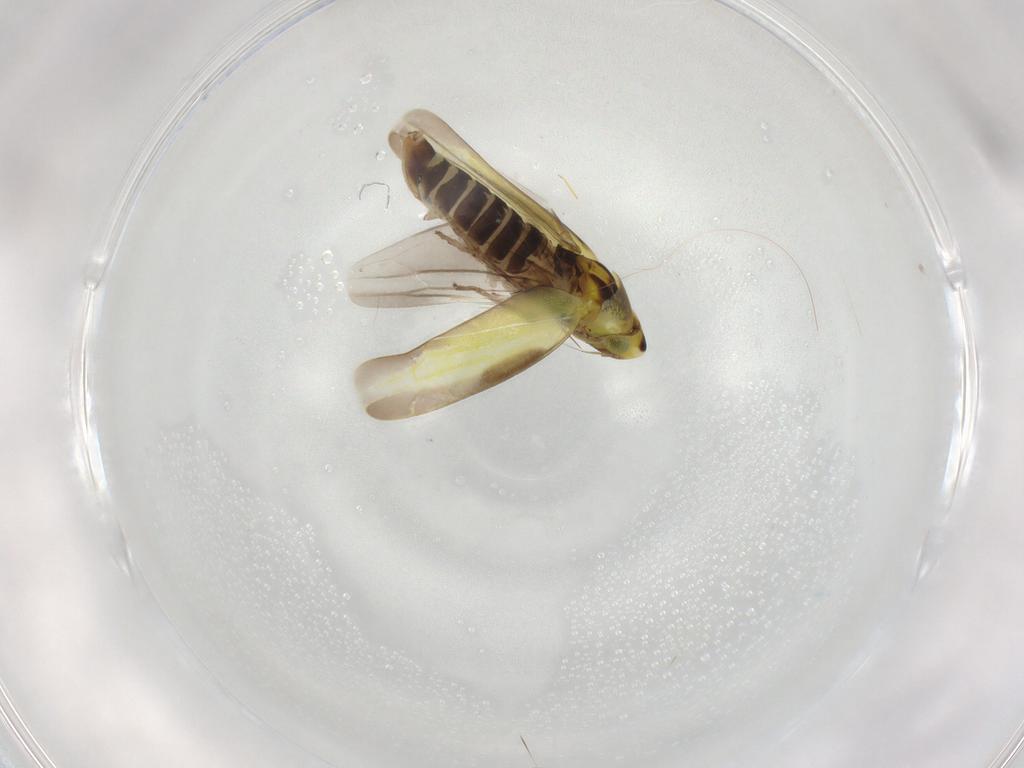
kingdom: Animalia
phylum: Arthropoda
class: Insecta
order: Hemiptera
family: Cicadellidae
